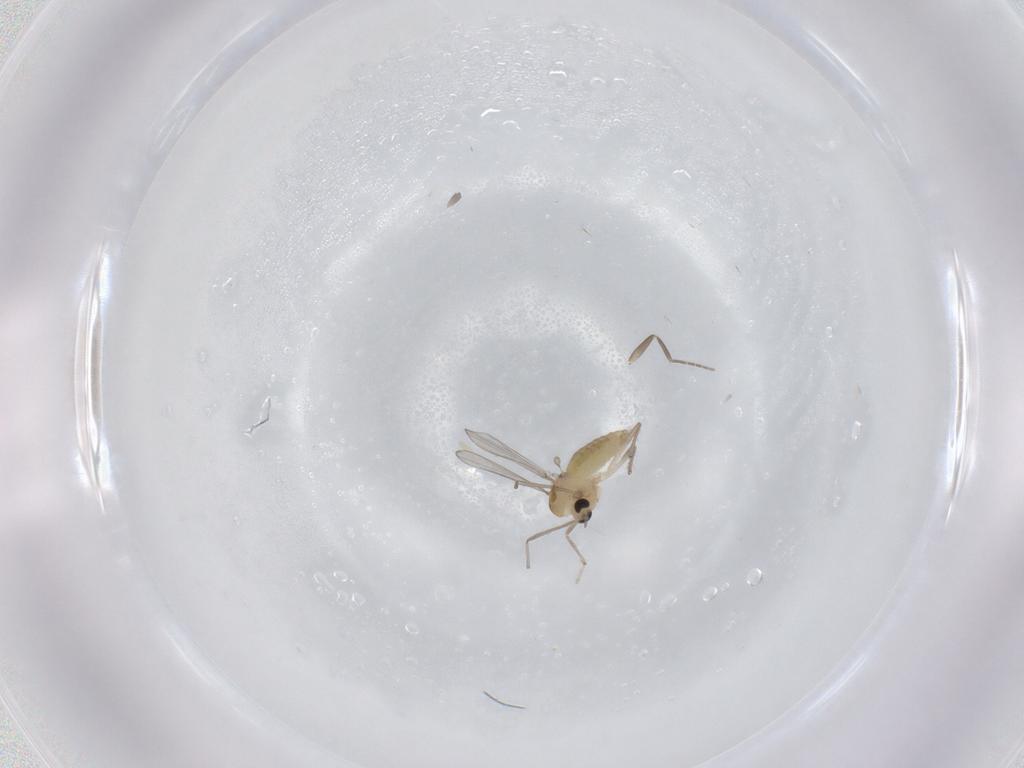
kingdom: Animalia
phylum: Arthropoda
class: Insecta
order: Diptera
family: Chironomidae
